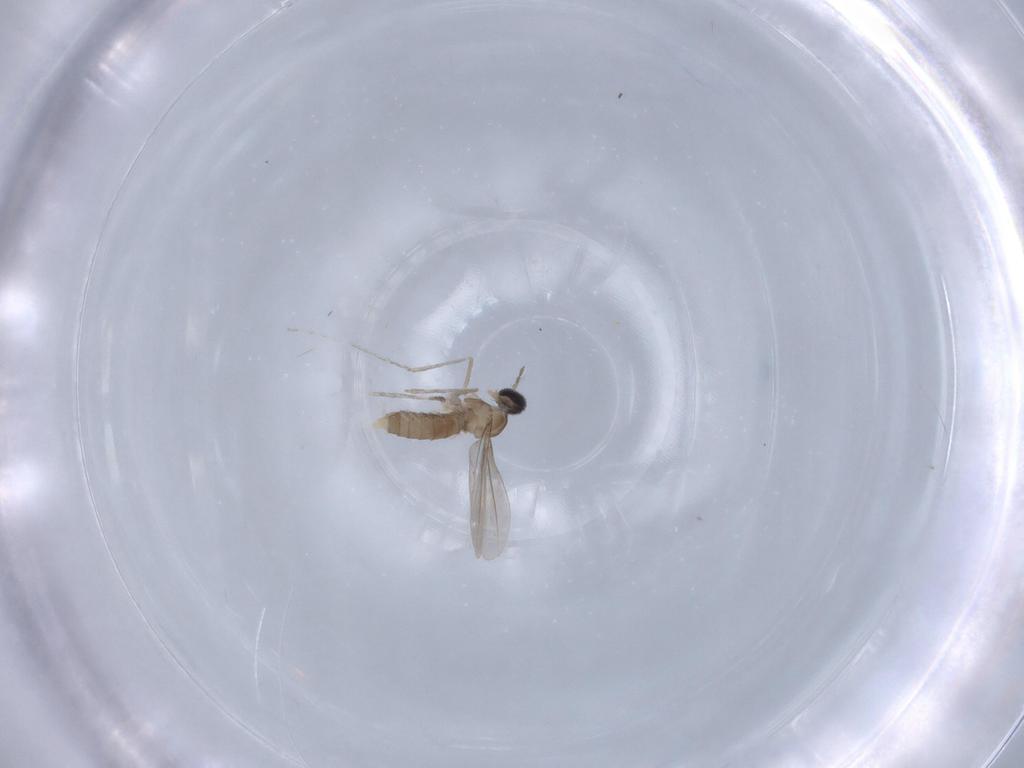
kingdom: Animalia
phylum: Arthropoda
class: Insecta
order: Diptera
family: Cecidomyiidae
